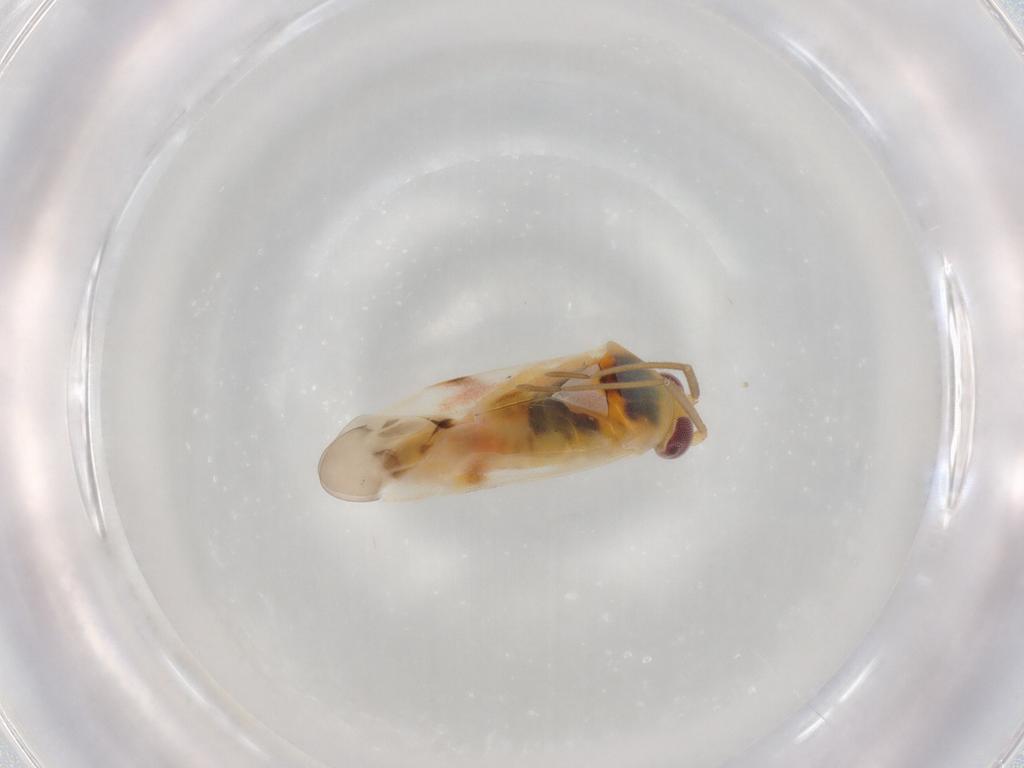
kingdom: Animalia
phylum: Arthropoda
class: Insecta
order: Hemiptera
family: Miridae
